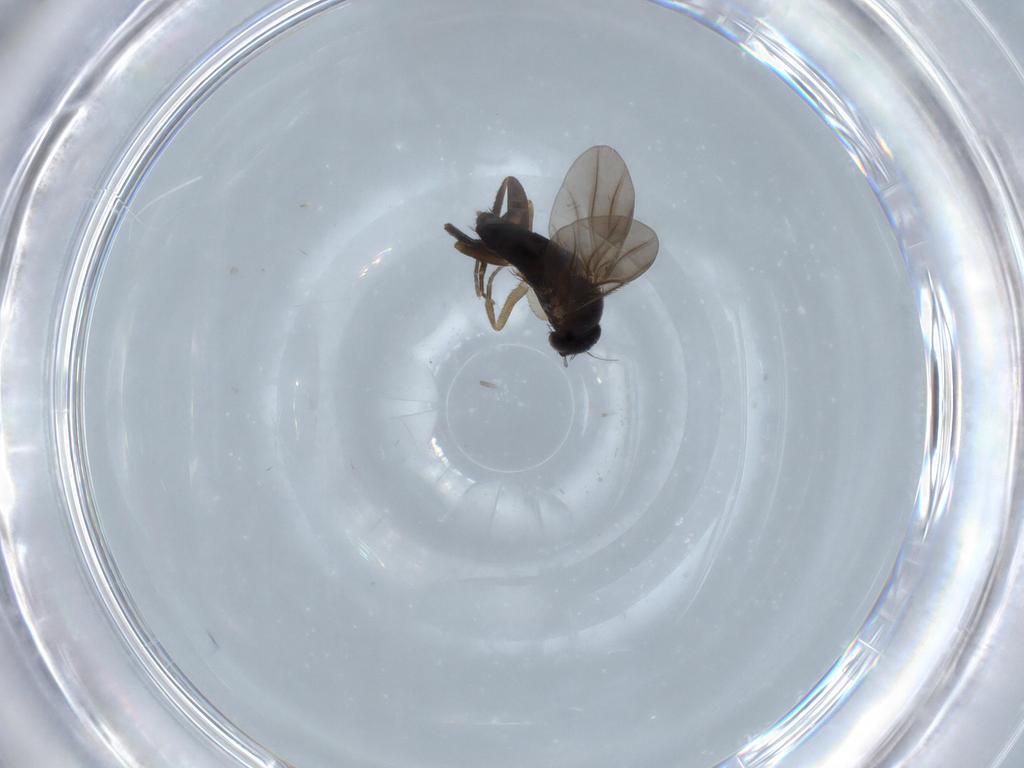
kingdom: Animalia
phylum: Arthropoda
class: Insecta
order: Diptera
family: Phoridae
